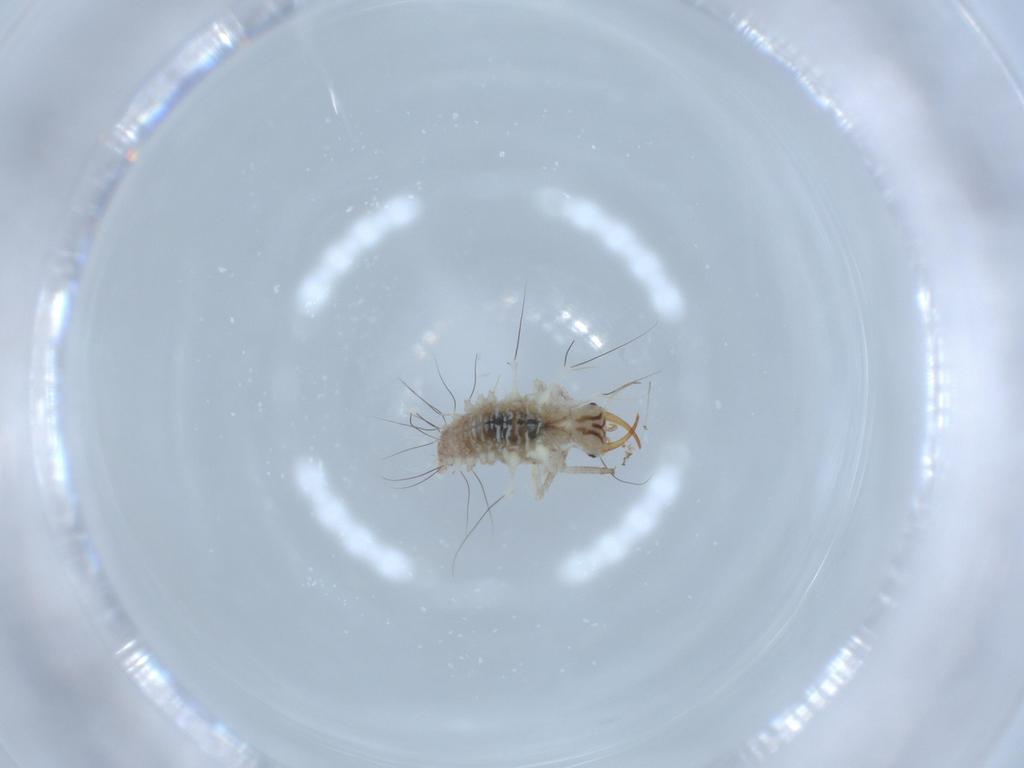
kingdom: Animalia
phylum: Arthropoda
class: Insecta
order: Neuroptera
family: Chrysopidae
